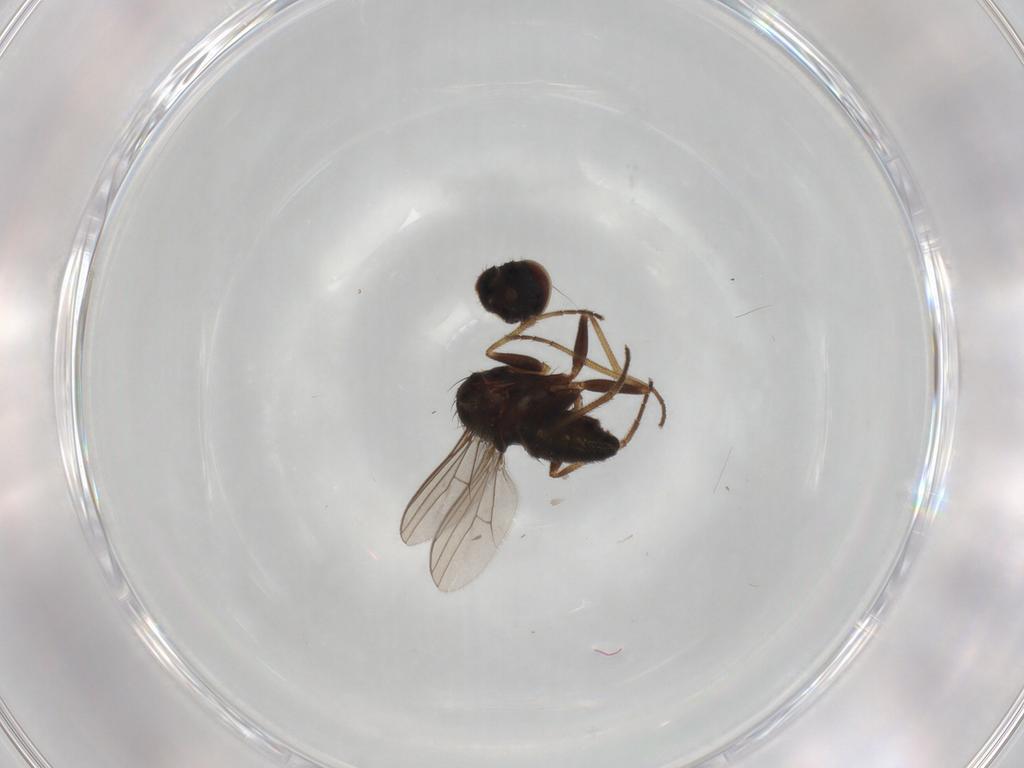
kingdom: Animalia
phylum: Arthropoda
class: Insecta
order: Diptera
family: Dolichopodidae
